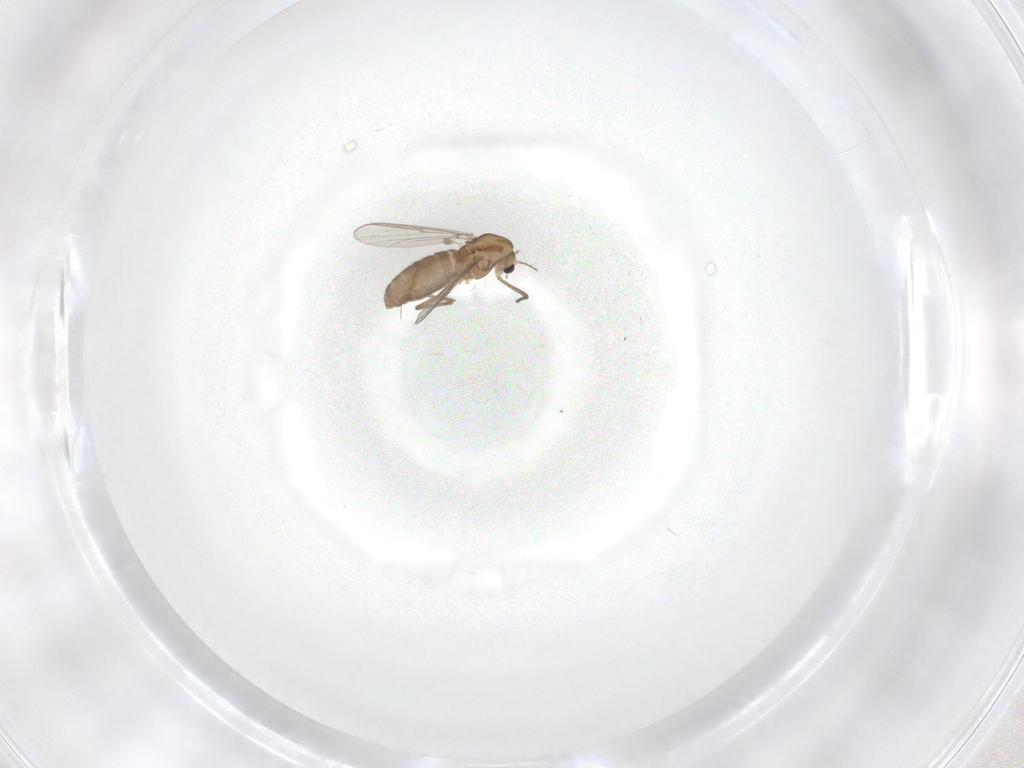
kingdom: Animalia
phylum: Arthropoda
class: Insecta
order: Diptera
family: Chironomidae
